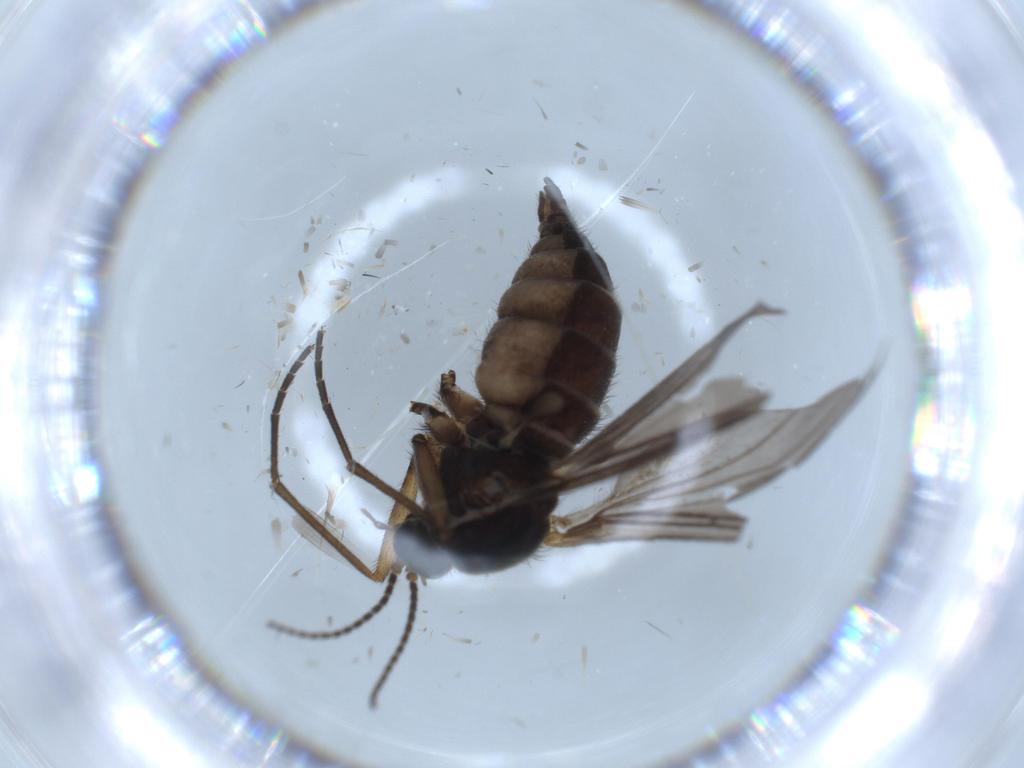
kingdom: Animalia
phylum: Arthropoda
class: Insecta
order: Diptera
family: Sciaridae
